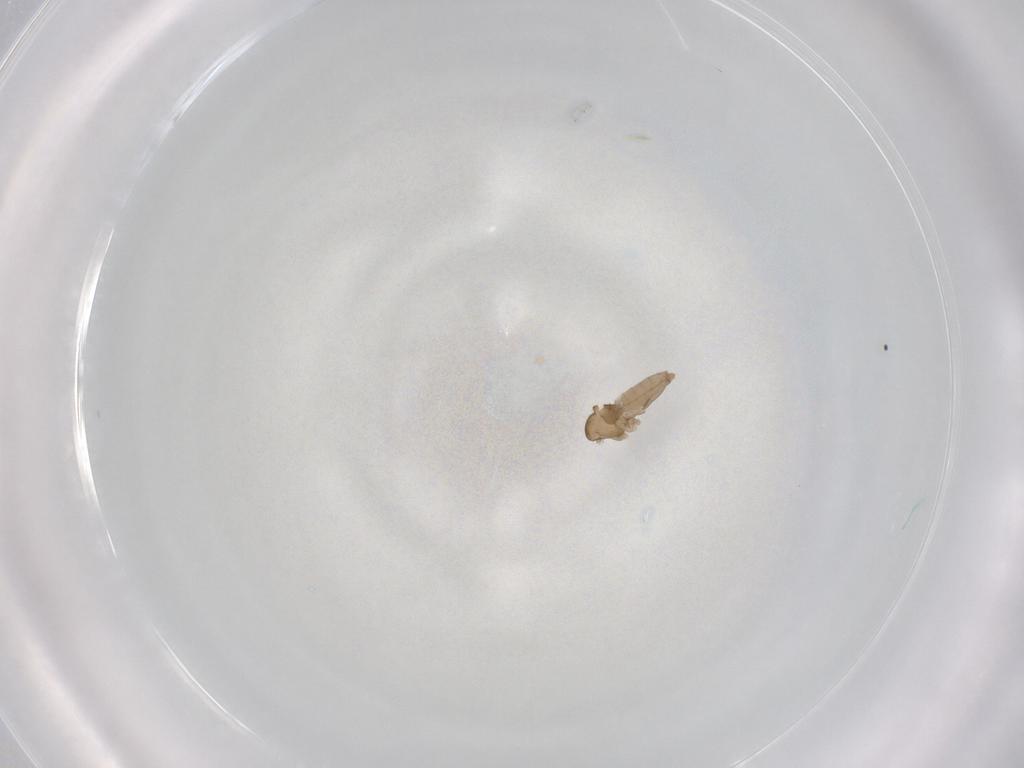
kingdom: Animalia
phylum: Arthropoda
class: Insecta
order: Diptera
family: Cecidomyiidae
